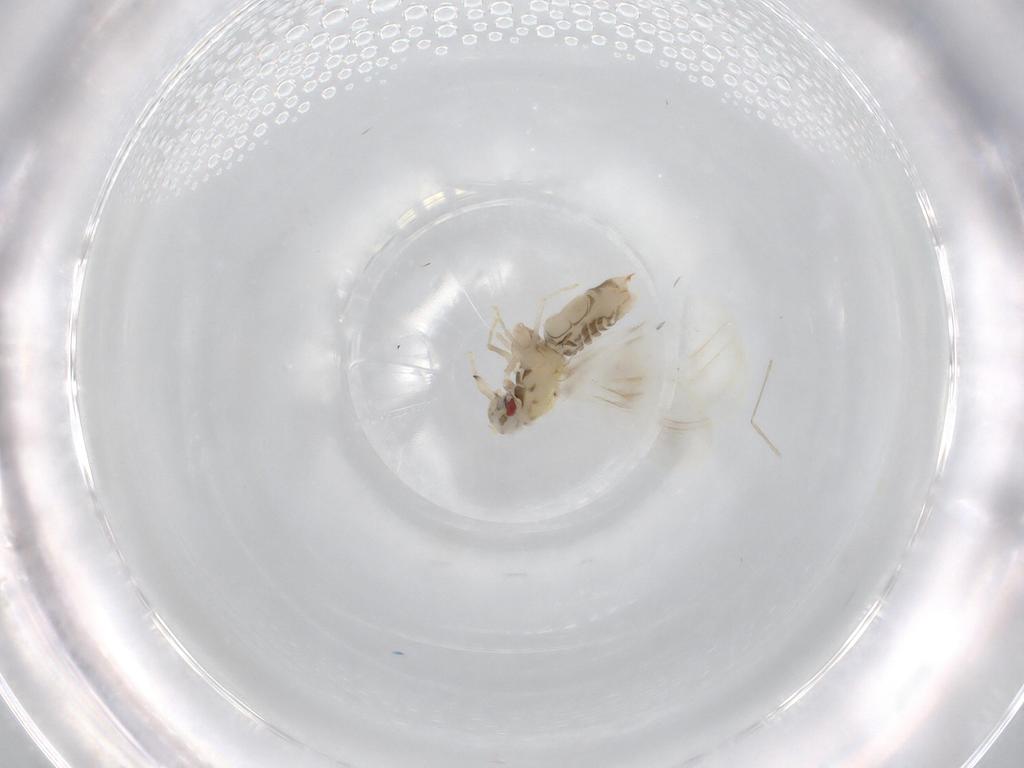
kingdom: Animalia
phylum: Arthropoda
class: Insecta
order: Hemiptera
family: Aleyrodidae
